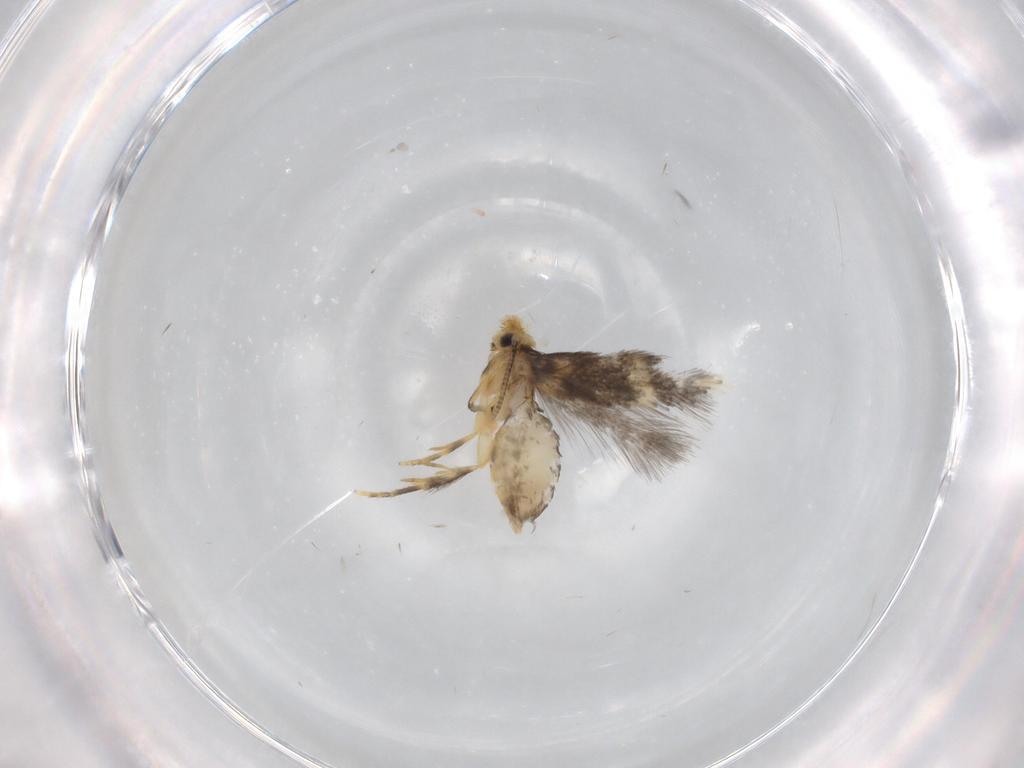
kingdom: Animalia
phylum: Arthropoda
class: Insecta
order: Lepidoptera
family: Nepticulidae
